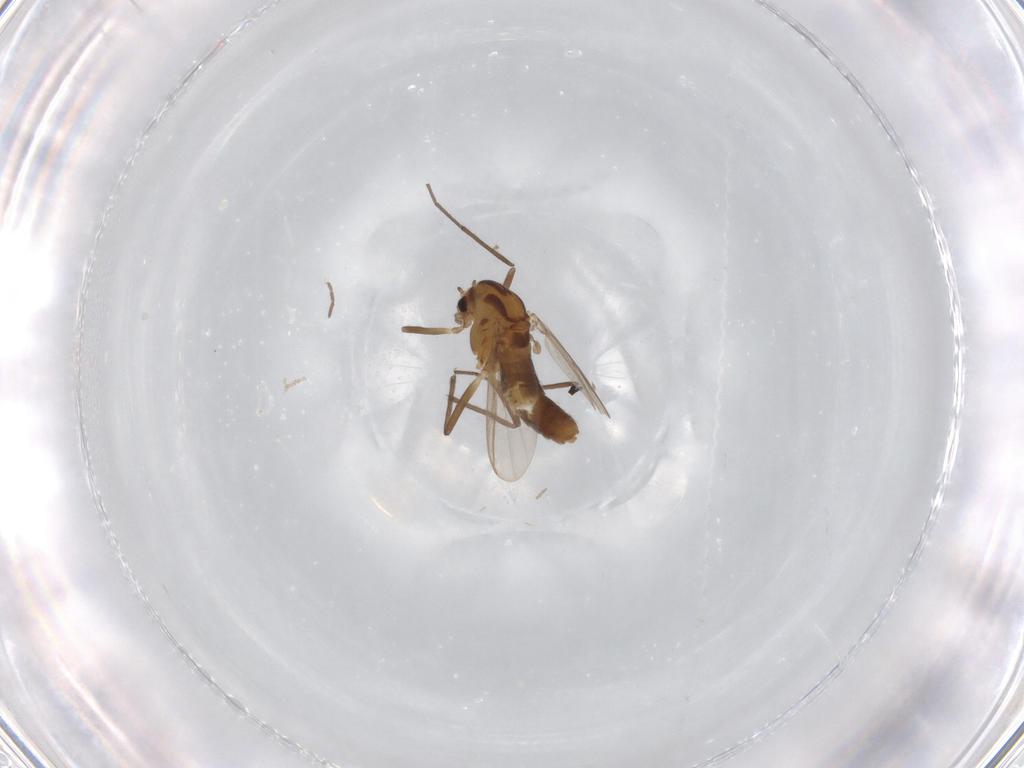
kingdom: Animalia
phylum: Arthropoda
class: Insecta
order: Diptera
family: Chironomidae
